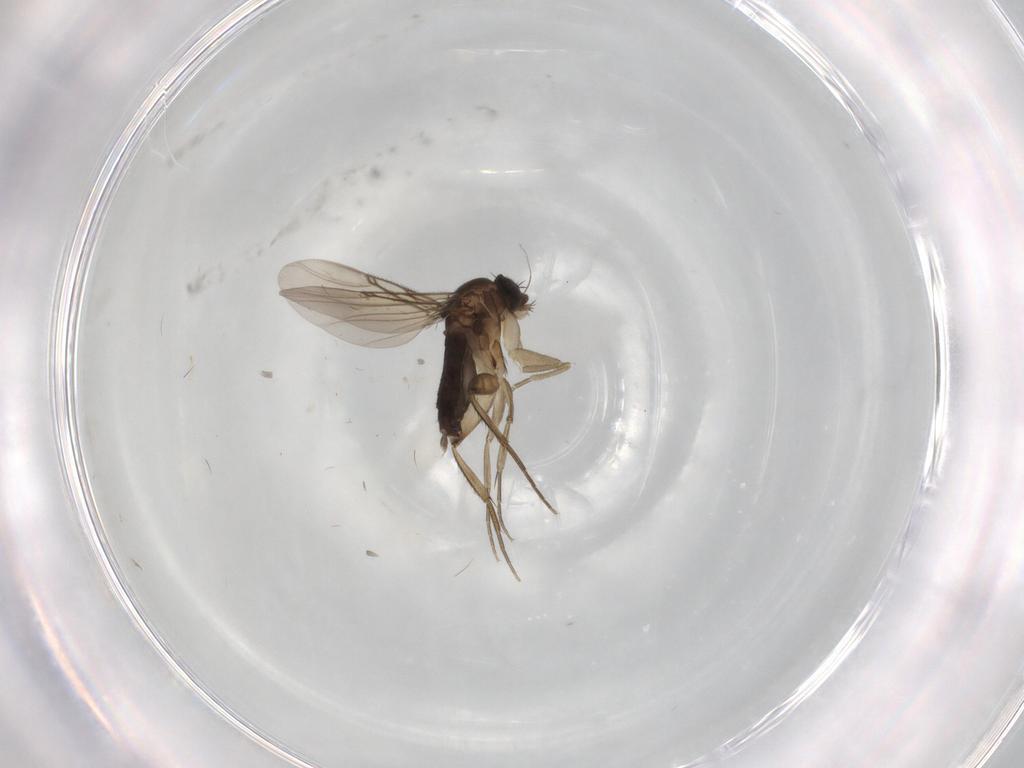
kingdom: Animalia
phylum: Arthropoda
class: Insecta
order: Diptera
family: Phoridae
